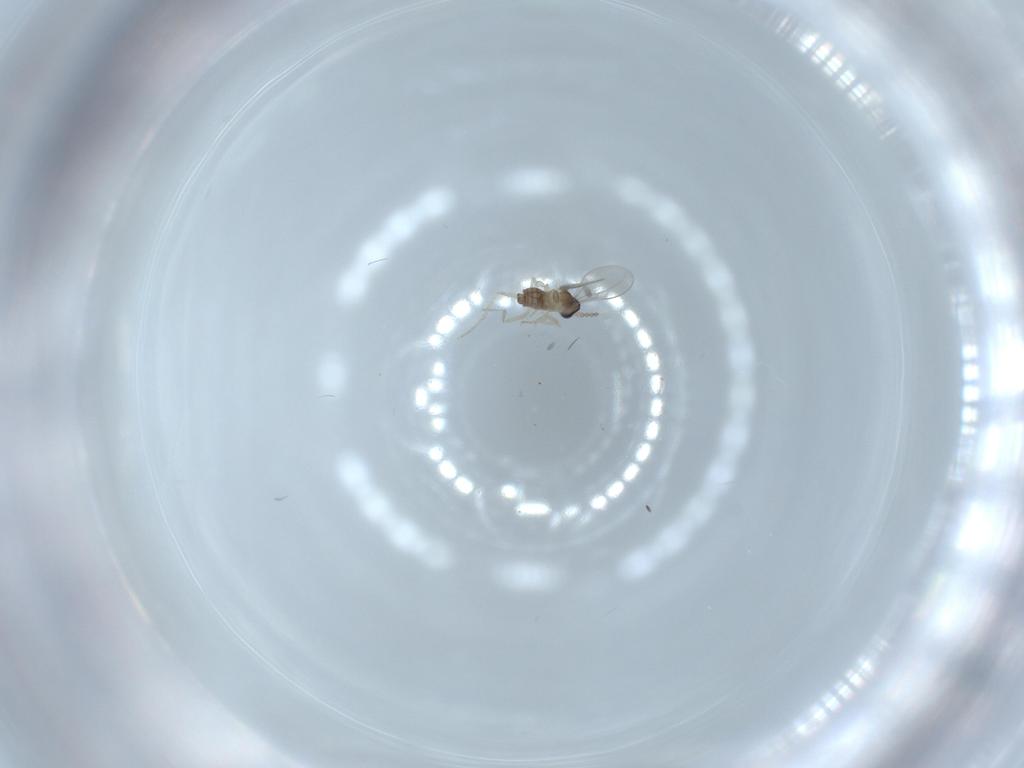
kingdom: Animalia
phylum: Arthropoda
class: Insecta
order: Diptera
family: Cecidomyiidae
